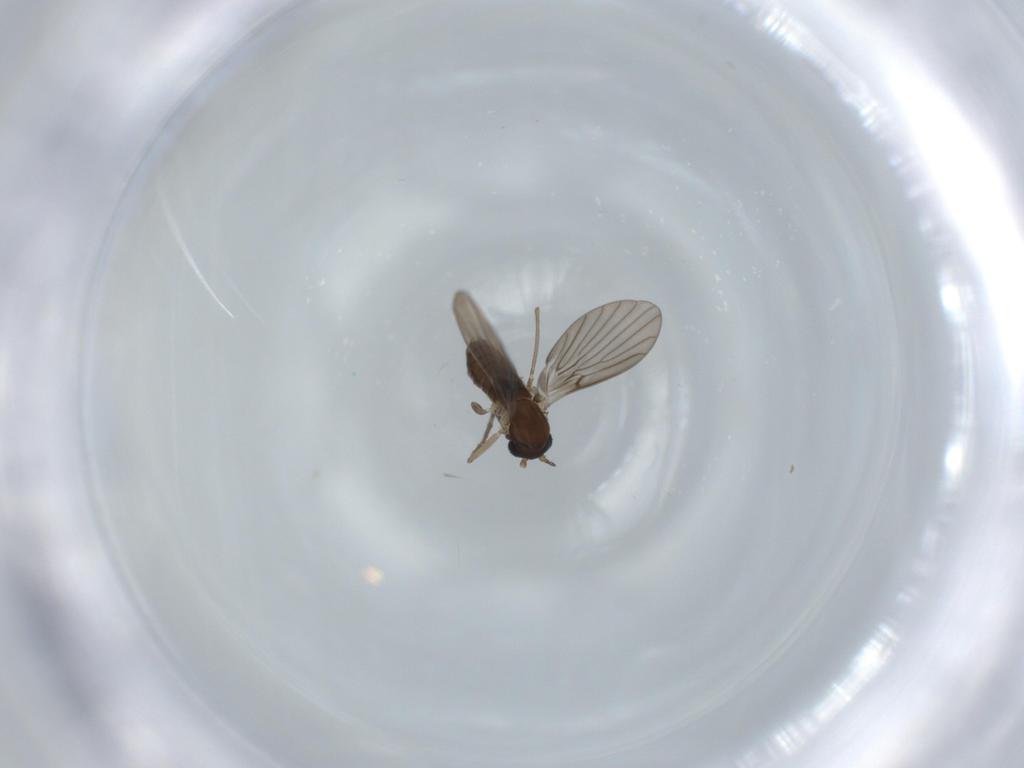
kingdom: Animalia
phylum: Arthropoda
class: Insecta
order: Diptera
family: Psychodidae
